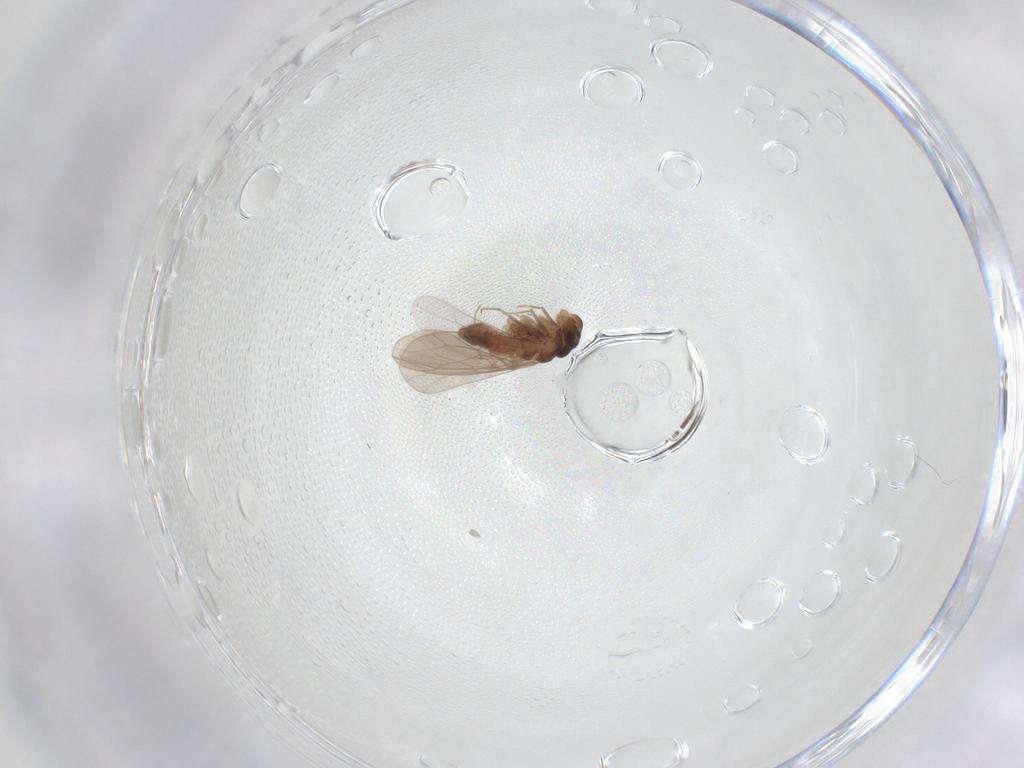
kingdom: Animalia
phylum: Arthropoda
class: Insecta
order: Psocodea
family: Lepidopsocidae
